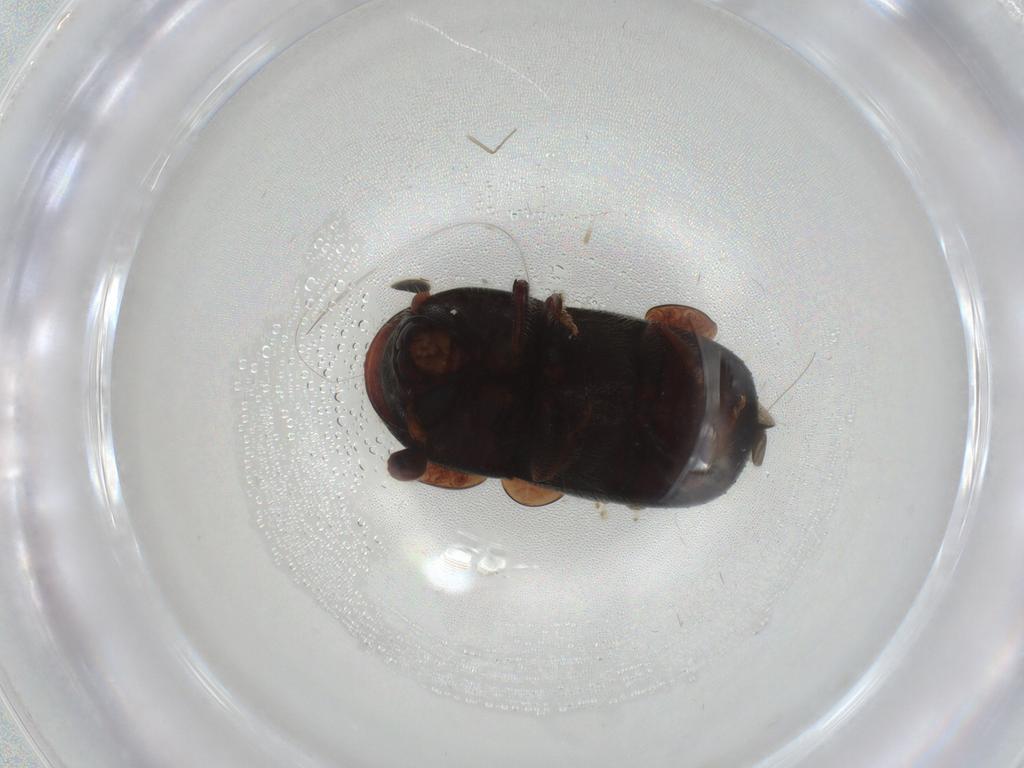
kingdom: Animalia
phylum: Arthropoda
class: Insecta
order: Coleoptera
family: Curculionidae
